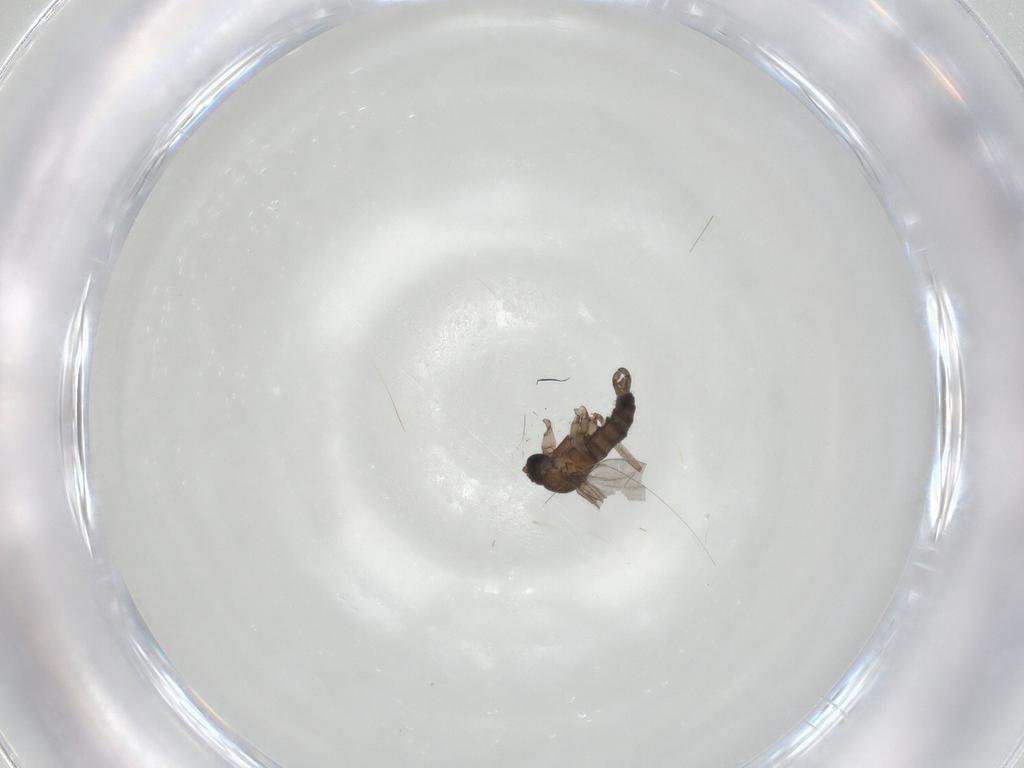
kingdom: Animalia
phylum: Arthropoda
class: Insecta
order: Diptera
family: Sciaridae
